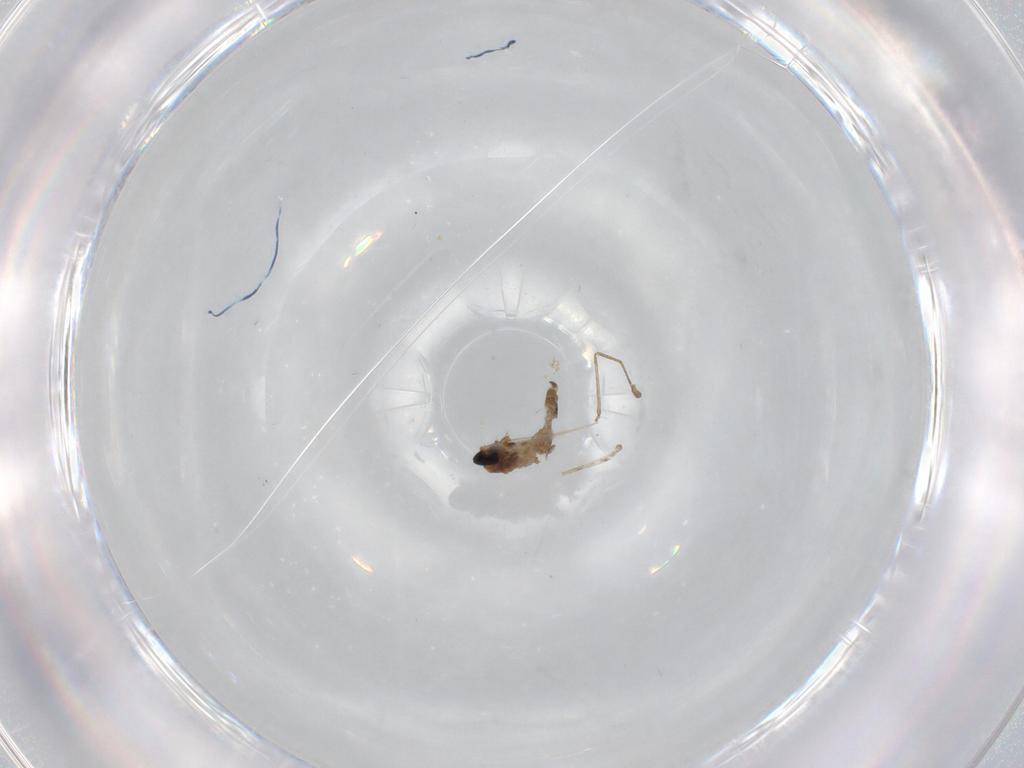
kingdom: Animalia
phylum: Arthropoda
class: Insecta
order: Diptera
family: Cecidomyiidae
